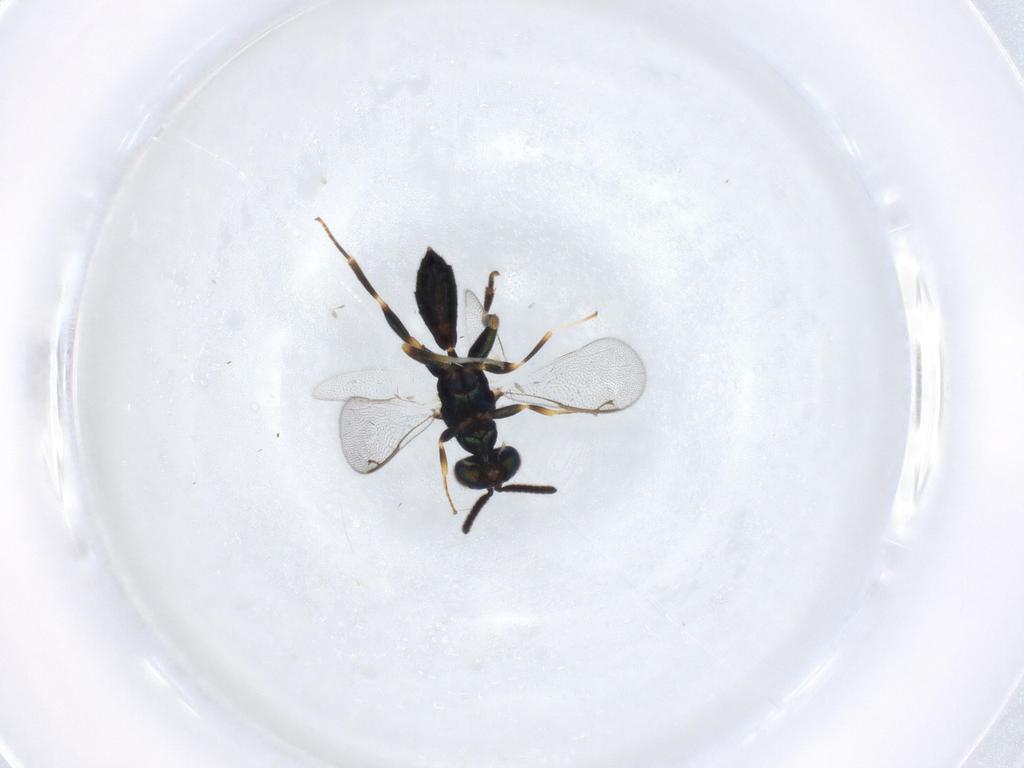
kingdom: Animalia
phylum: Arthropoda
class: Insecta
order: Hymenoptera
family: Cleonyminae
